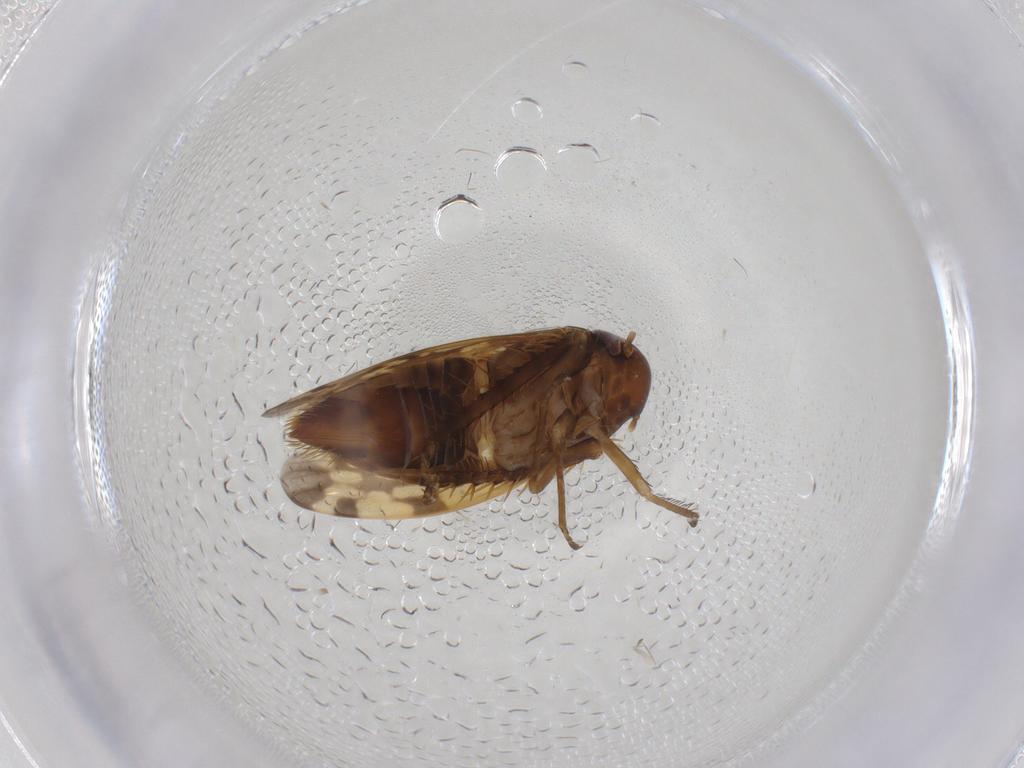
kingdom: Animalia
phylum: Arthropoda
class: Insecta
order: Hemiptera
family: Cicadellidae
